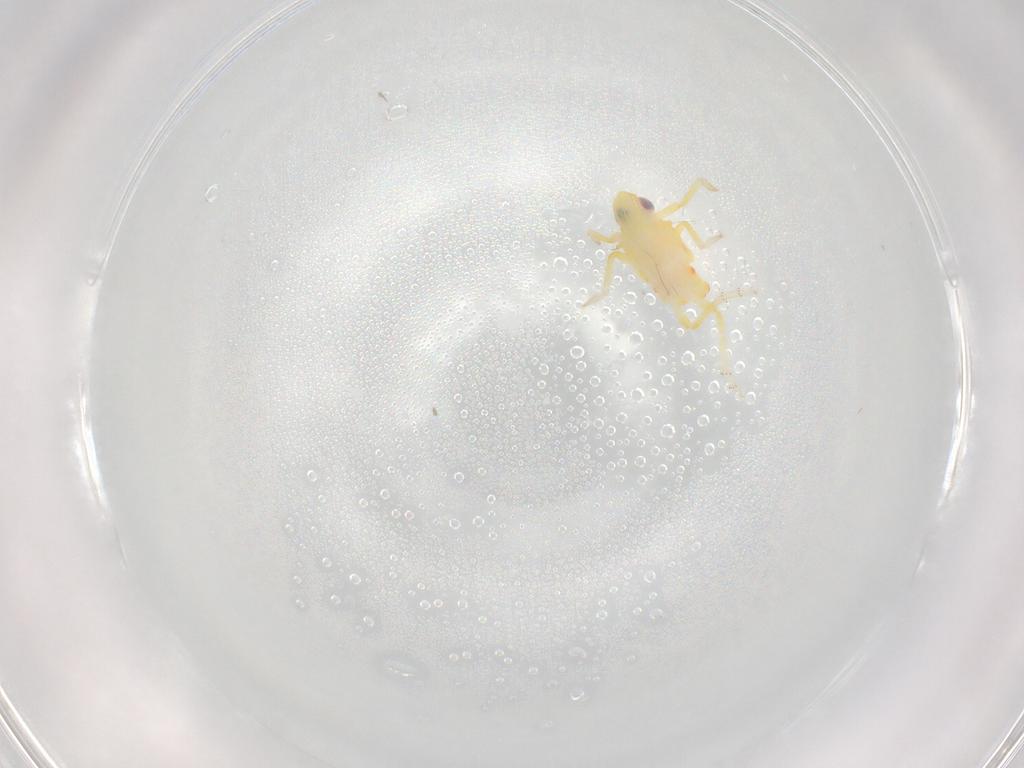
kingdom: Animalia
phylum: Arthropoda
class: Insecta
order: Hemiptera
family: Tropiduchidae
